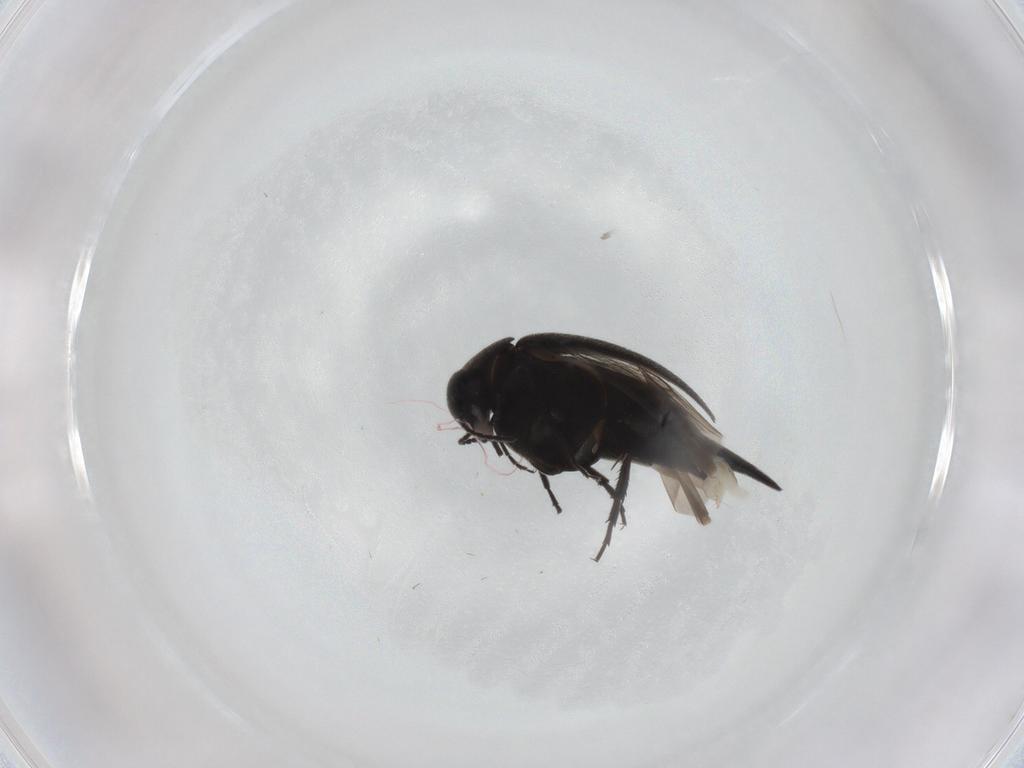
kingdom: Animalia
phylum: Arthropoda
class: Insecta
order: Coleoptera
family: Mordellidae
